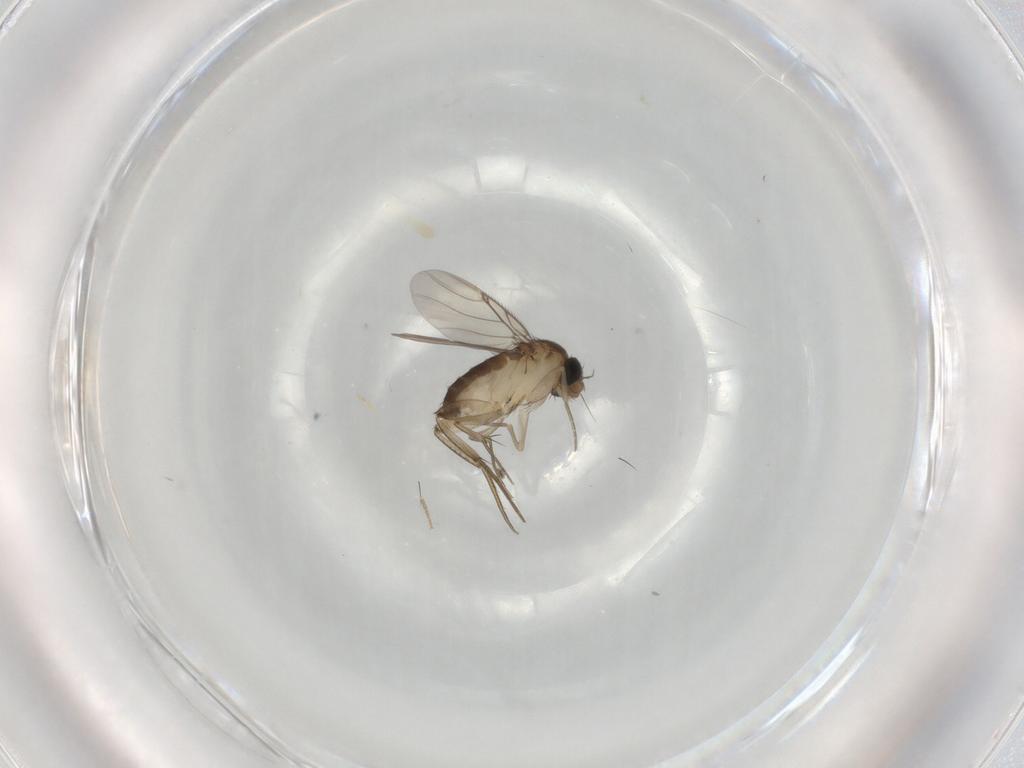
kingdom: Animalia
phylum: Arthropoda
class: Insecta
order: Diptera
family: Phoridae
